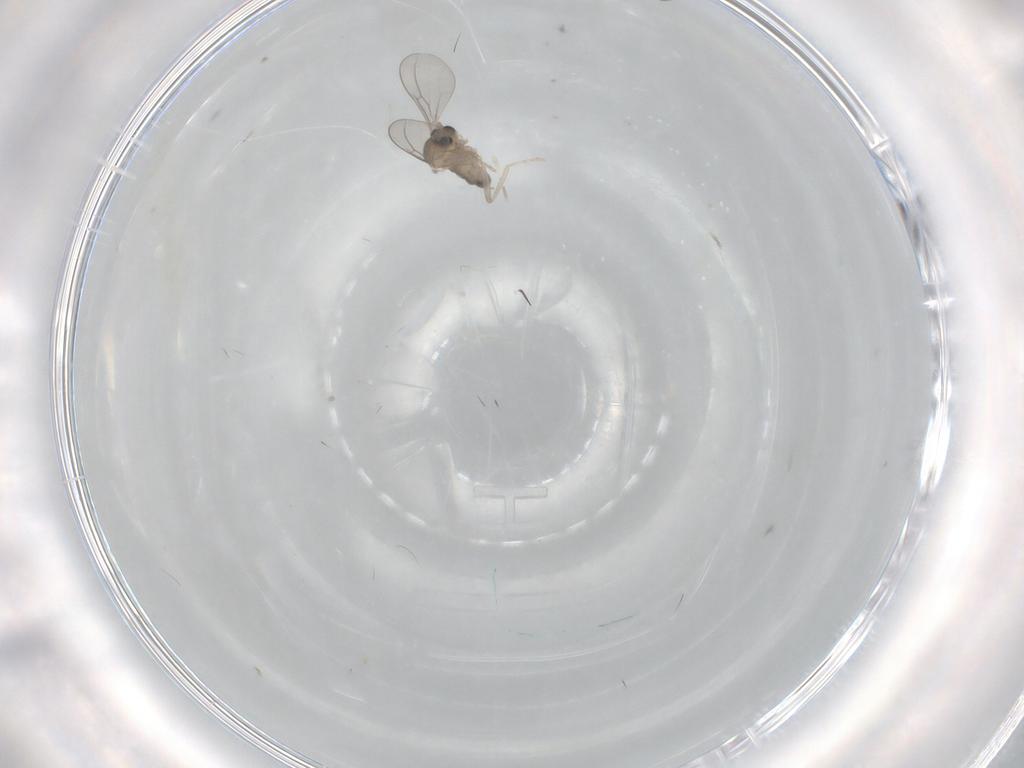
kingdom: Animalia
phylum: Arthropoda
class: Insecta
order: Diptera
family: Cecidomyiidae
